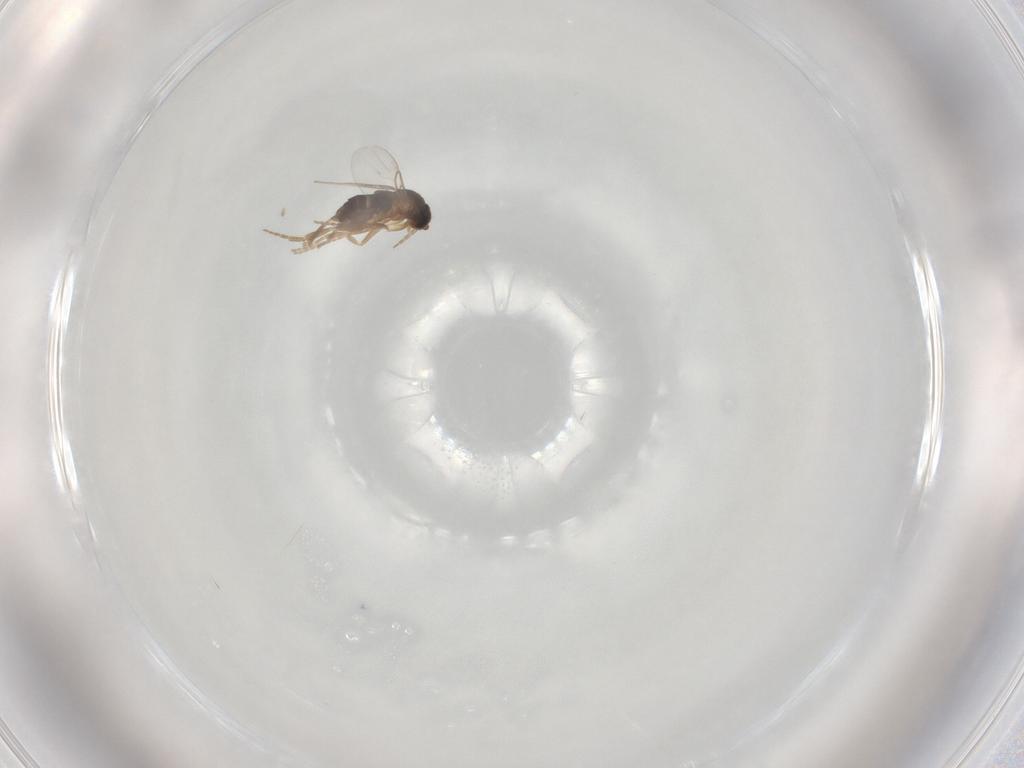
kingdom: Animalia
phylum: Arthropoda
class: Insecta
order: Diptera
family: Phoridae
